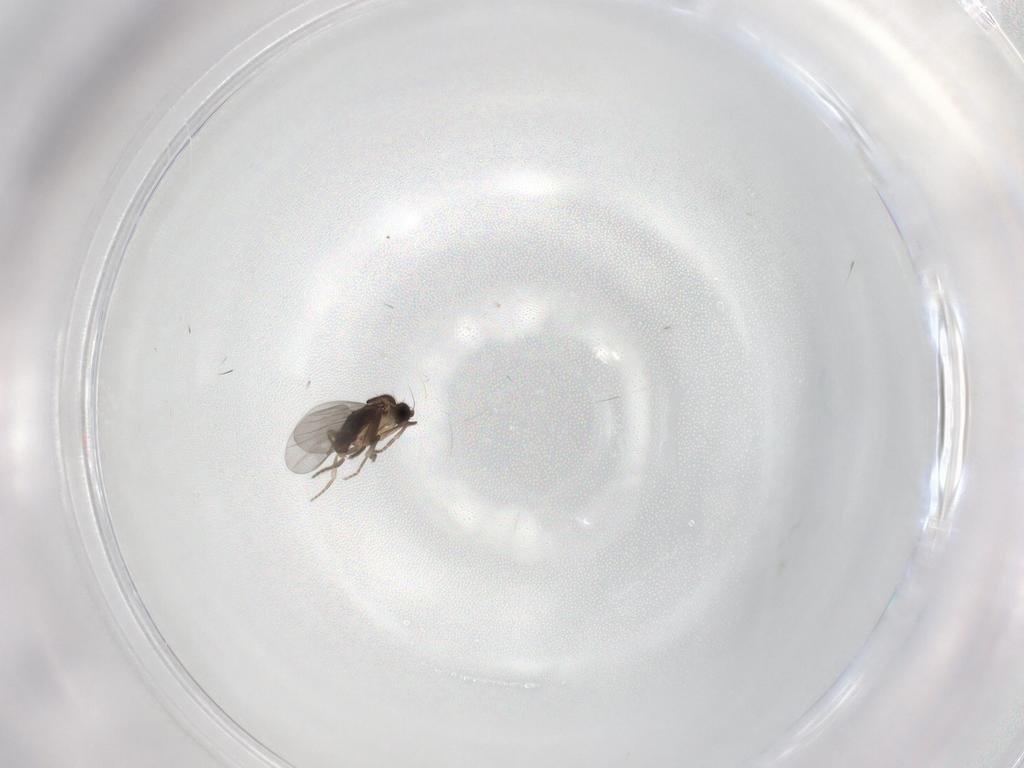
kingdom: Animalia
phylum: Arthropoda
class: Insecta
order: Diptera
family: Phoridae
